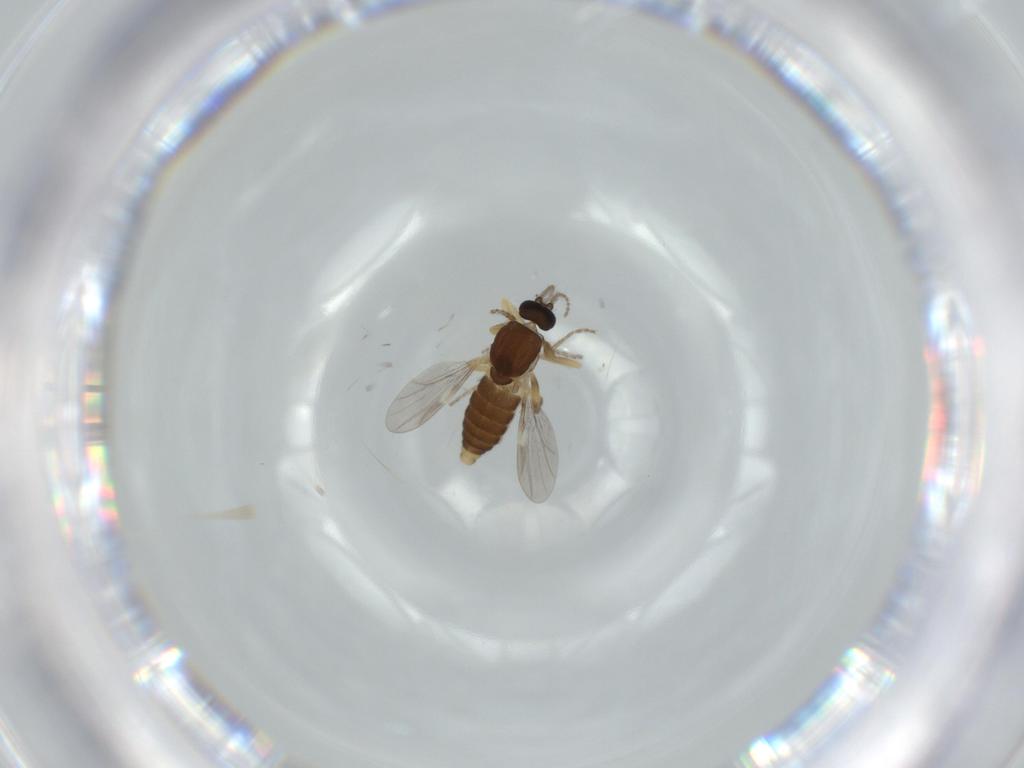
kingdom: Animalia
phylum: Arthropoda
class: Insecta
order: Diptera
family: Ceratopogonidae
